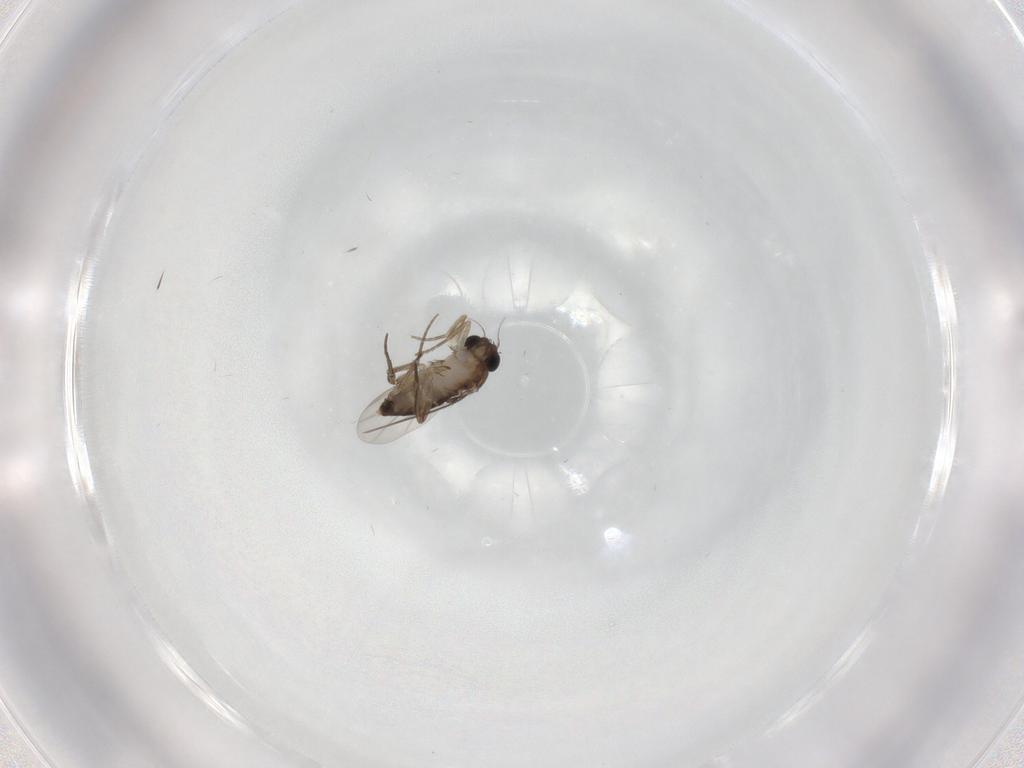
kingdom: Animalia
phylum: Arthropoda
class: Insecta
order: Diptera
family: Phoridae
